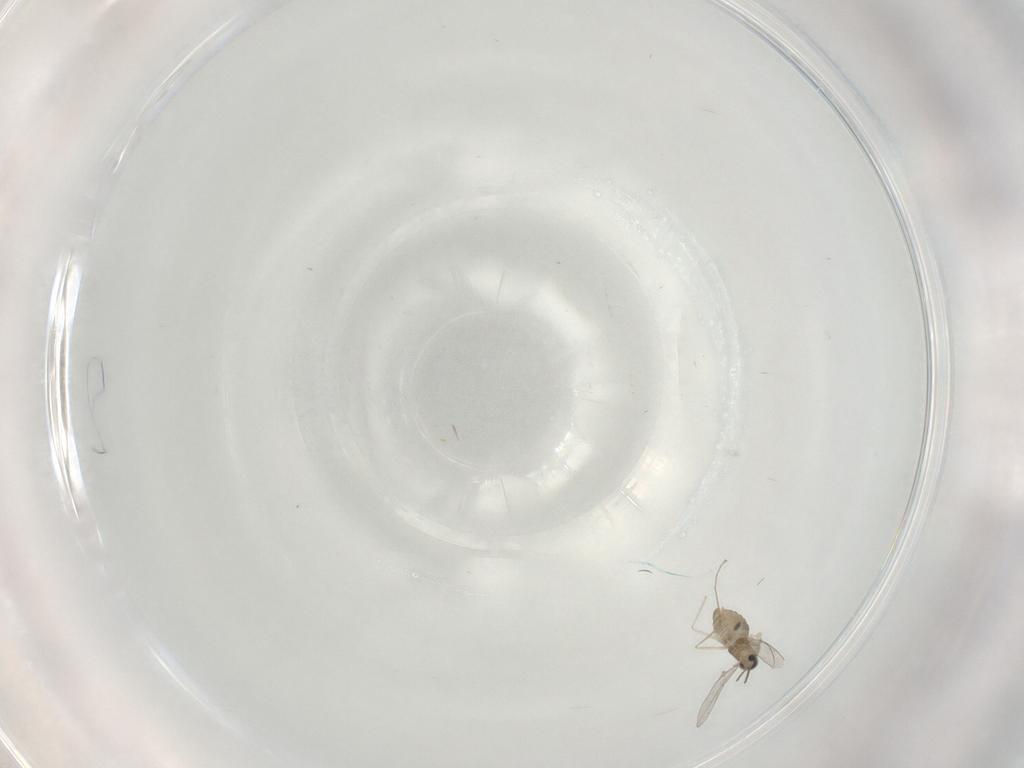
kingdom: Animalia
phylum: Arthropoda
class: Insecta
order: Diptera
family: Cecidomyiidae
